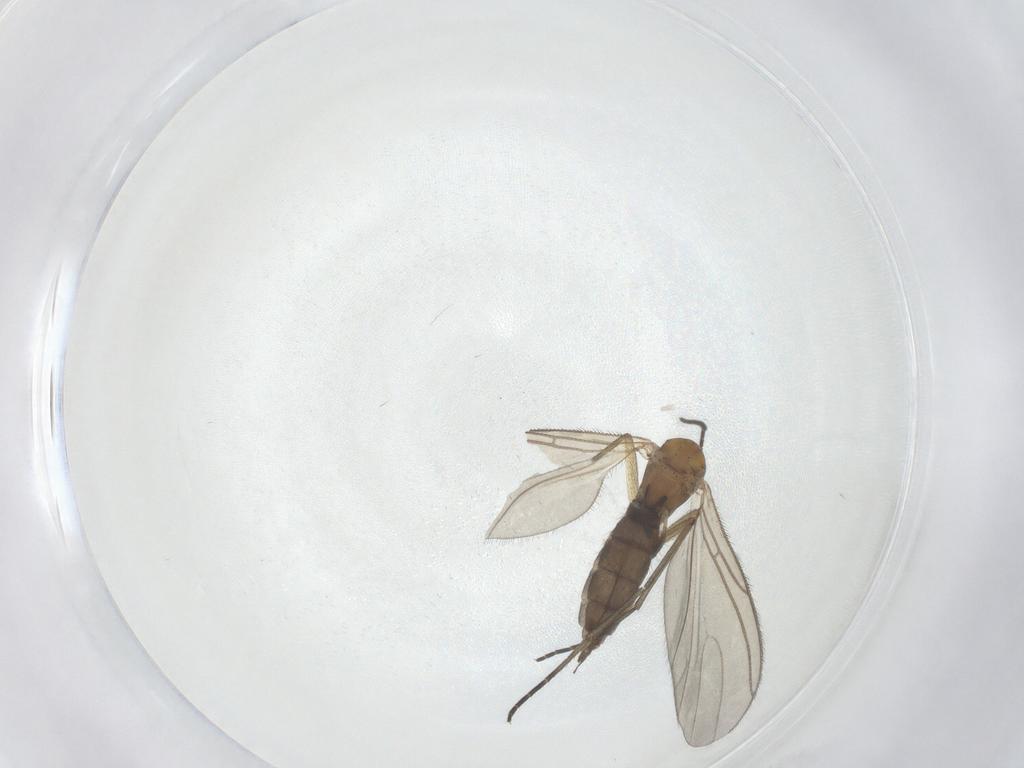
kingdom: Animalia
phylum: Arthropoda
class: Insecta
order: Diptera
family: Sciaridae
